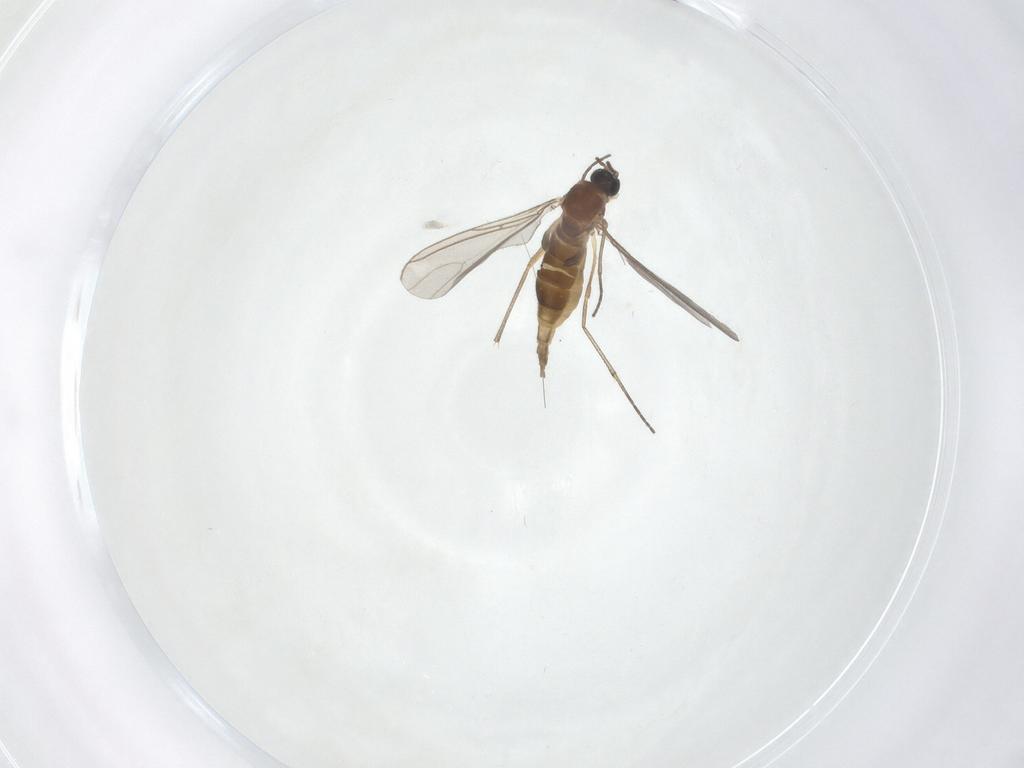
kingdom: Animalia
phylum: Arthropoda
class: Insecta
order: Diptera
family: Sciaridae
